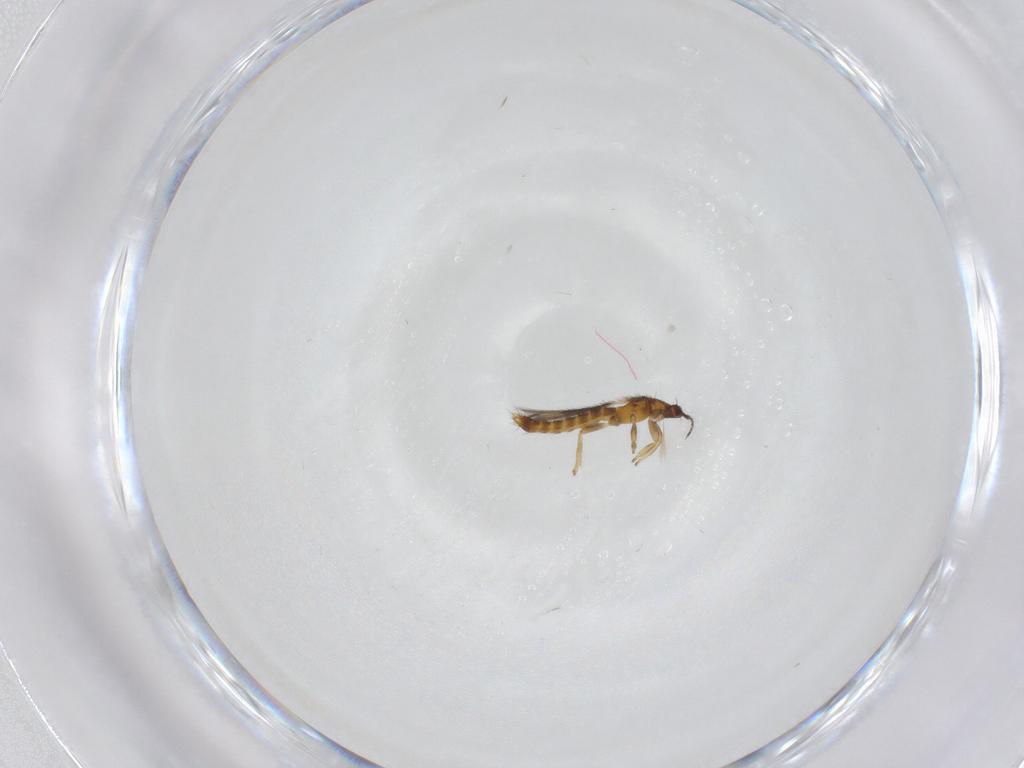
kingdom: Animalia
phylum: Arthropoda
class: Insecta
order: Thysanoptera
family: Thripidae
